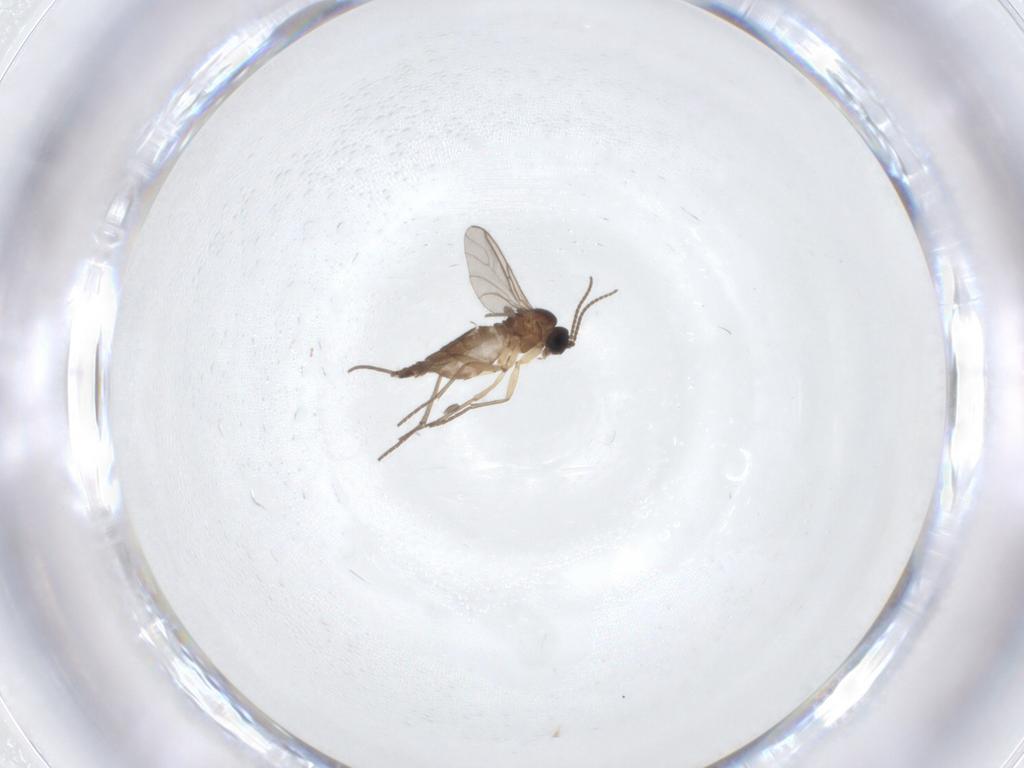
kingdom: Animalia
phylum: Arthropoda
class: Insecta
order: Diptera
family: Sciaridae
